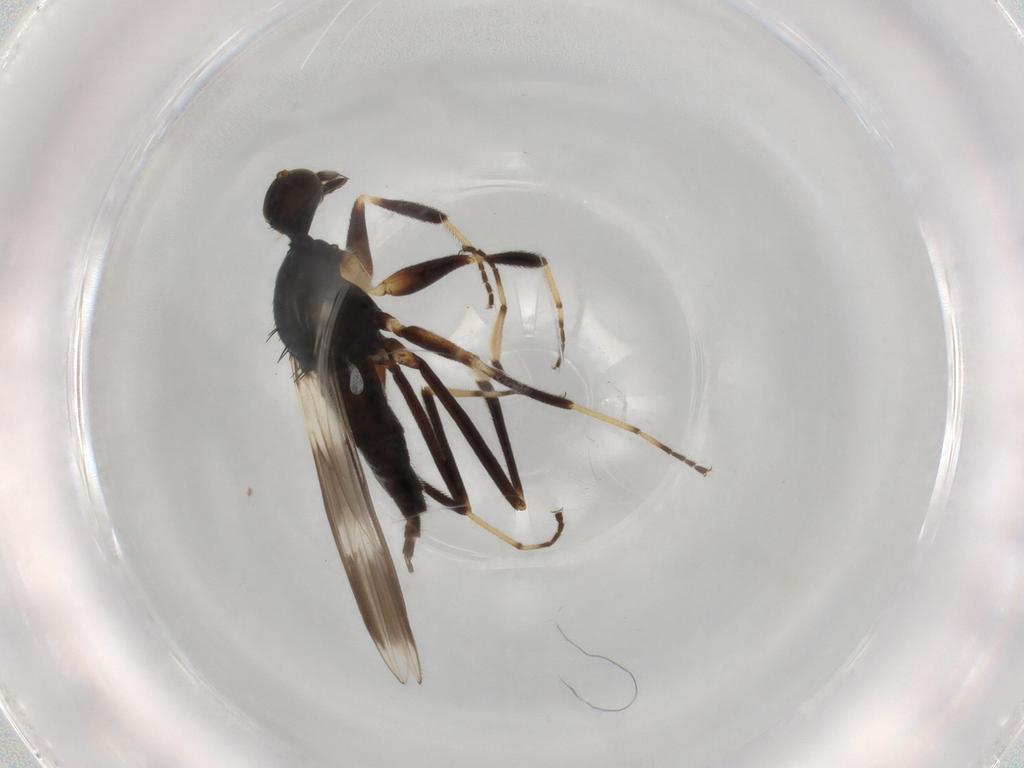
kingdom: Animalia
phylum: Arthropoda
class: Insecta
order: Diptera
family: Hybotidae
